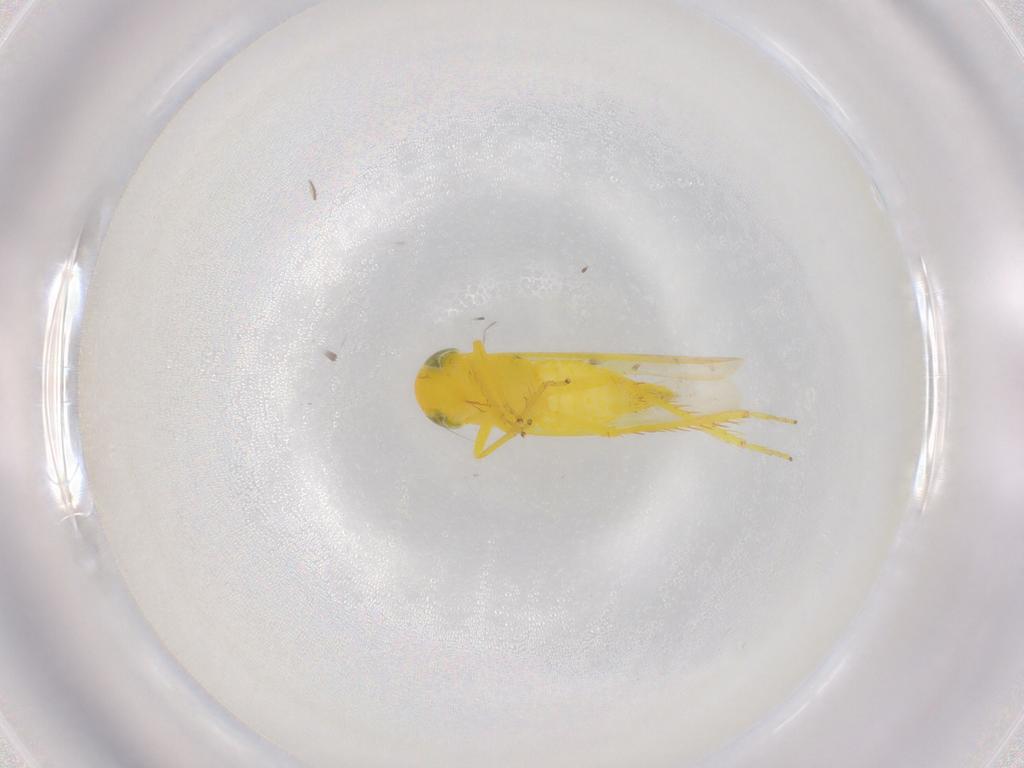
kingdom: Animalia
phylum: Arthropoda
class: Insecta
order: Hemiptera
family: Cicadellidae
